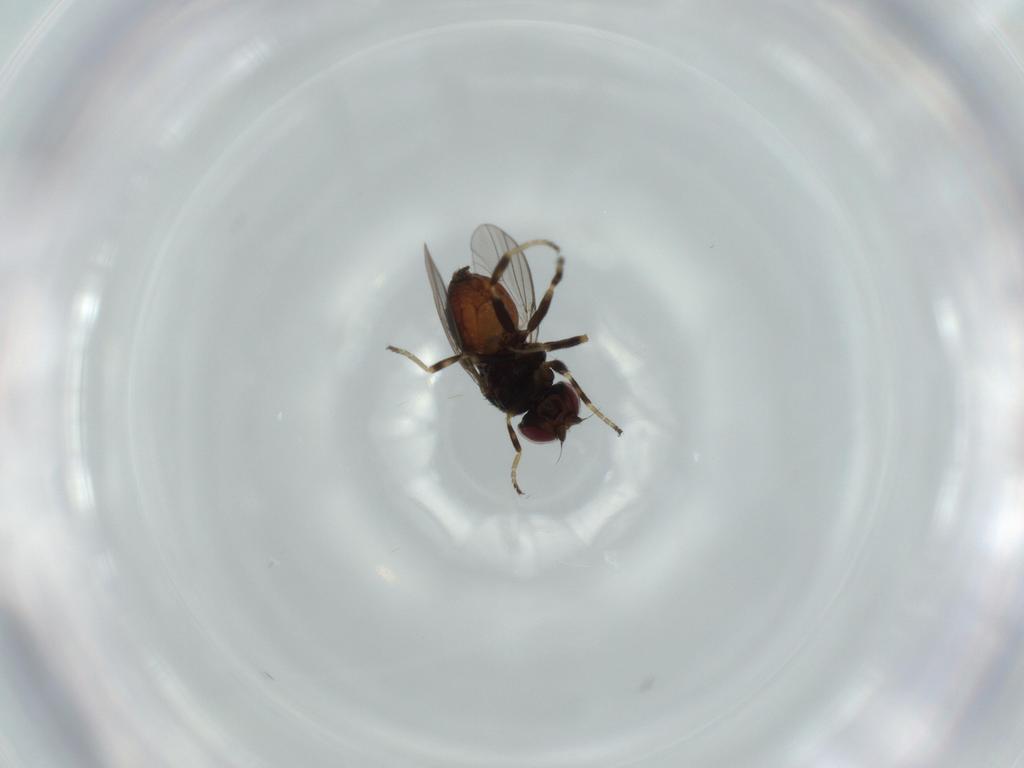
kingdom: Animalia
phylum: Arthropoda
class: Insecta
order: Diptera
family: Chloropidae
